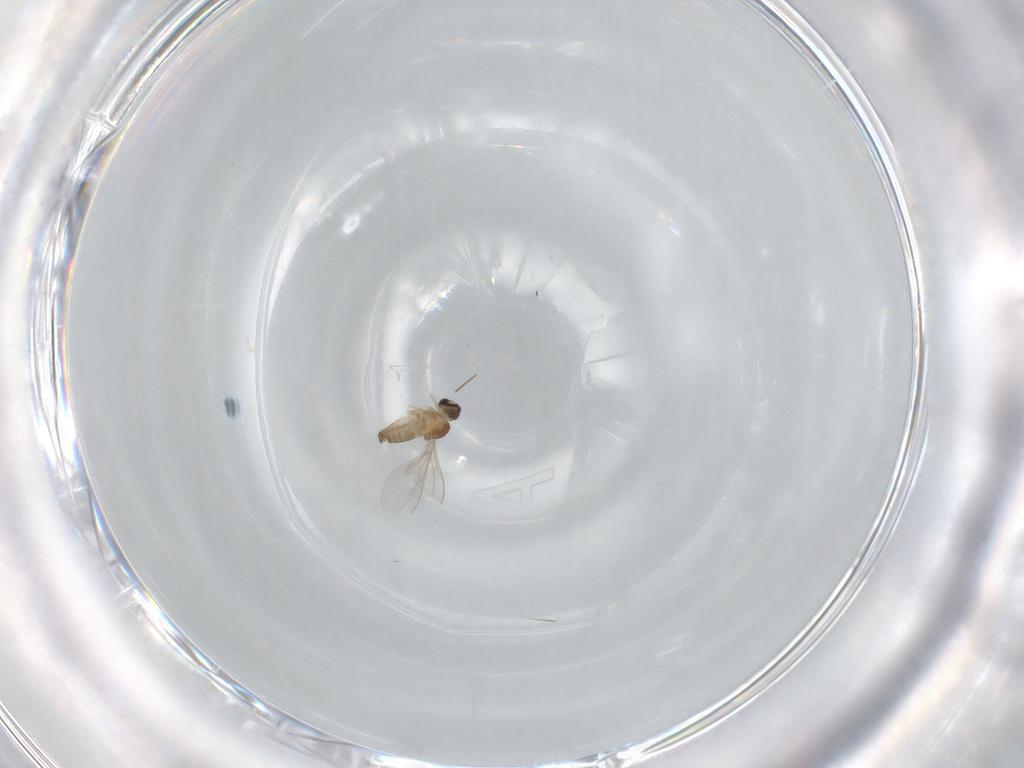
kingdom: Animalia
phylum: Arthropoda
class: Insecta
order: Diptera
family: Cecidomyiidae
